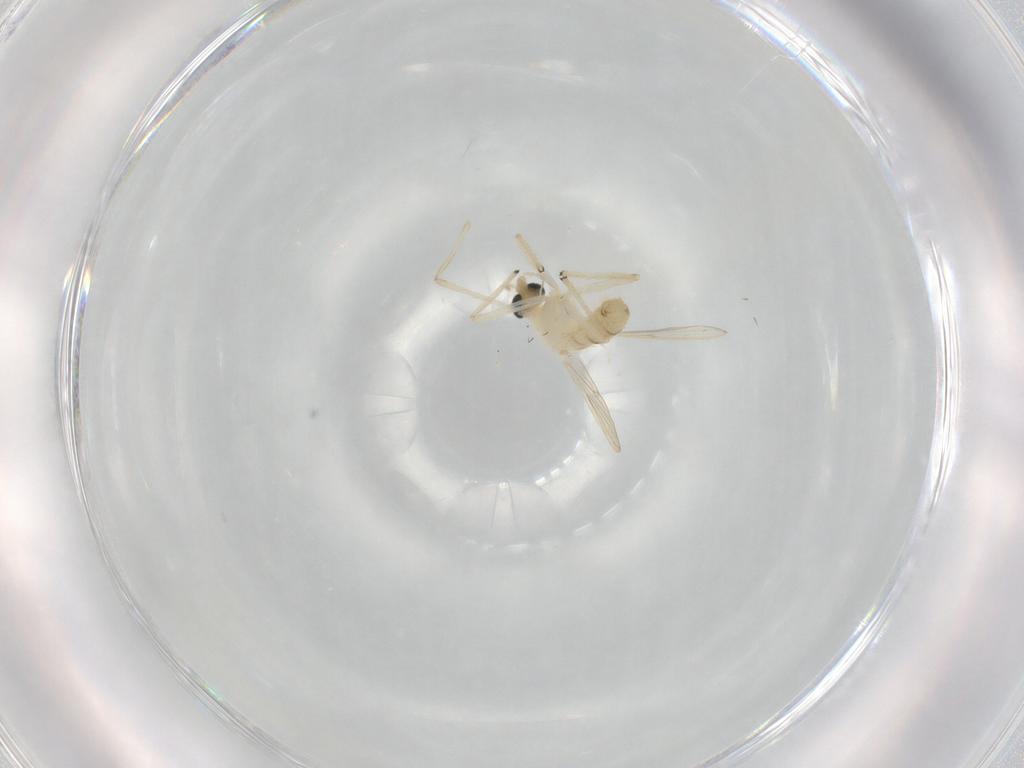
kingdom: Animalia
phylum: Arthropoda
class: Insecta
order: Diptera
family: Chironomidae
